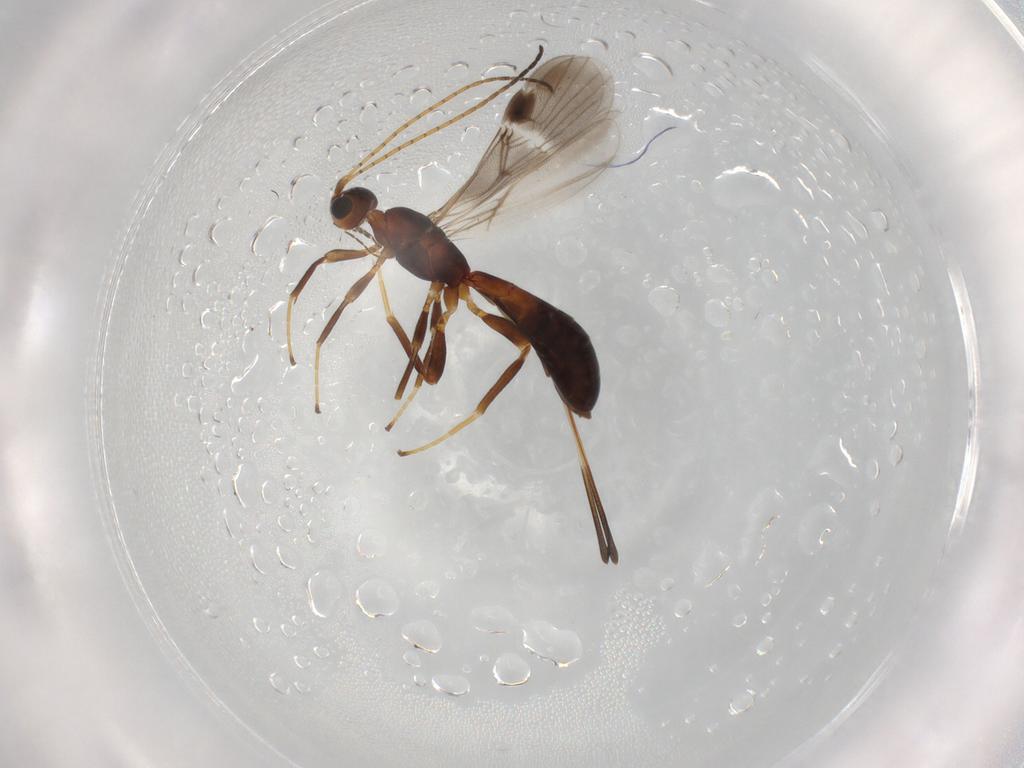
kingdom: Animalia
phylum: Arthropoda
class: Insecta
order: Hymenoptera
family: Braconidae
